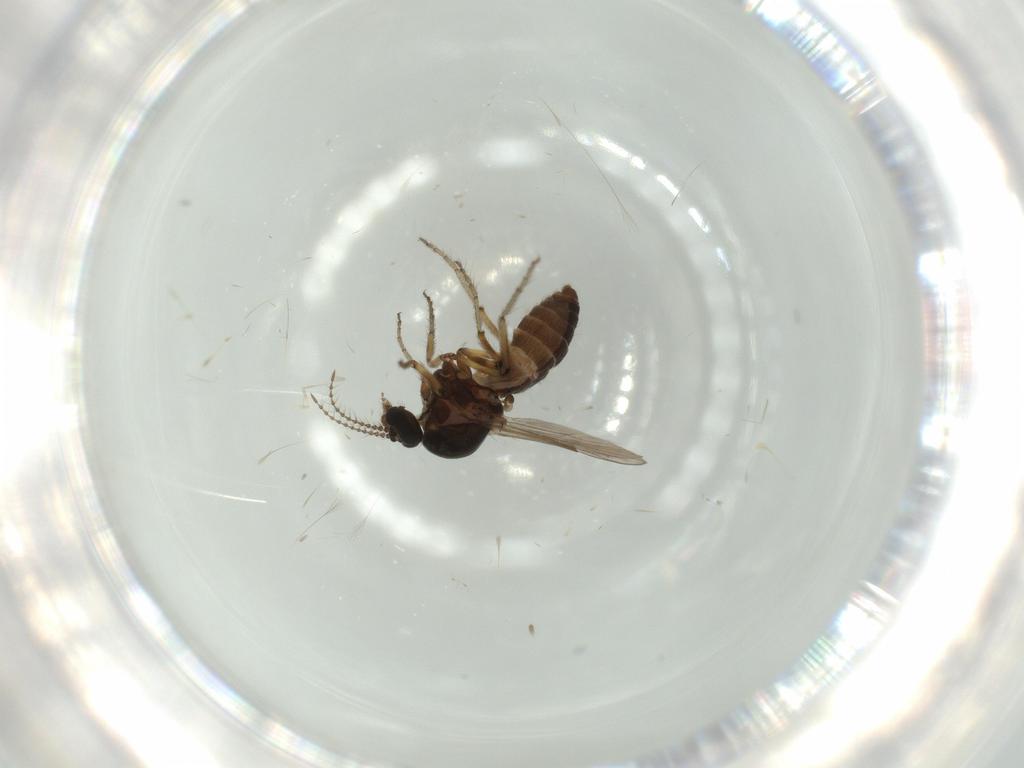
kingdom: Animalia
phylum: Arthropoda
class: Insecta
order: Diptera
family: Ceratopogonidae
